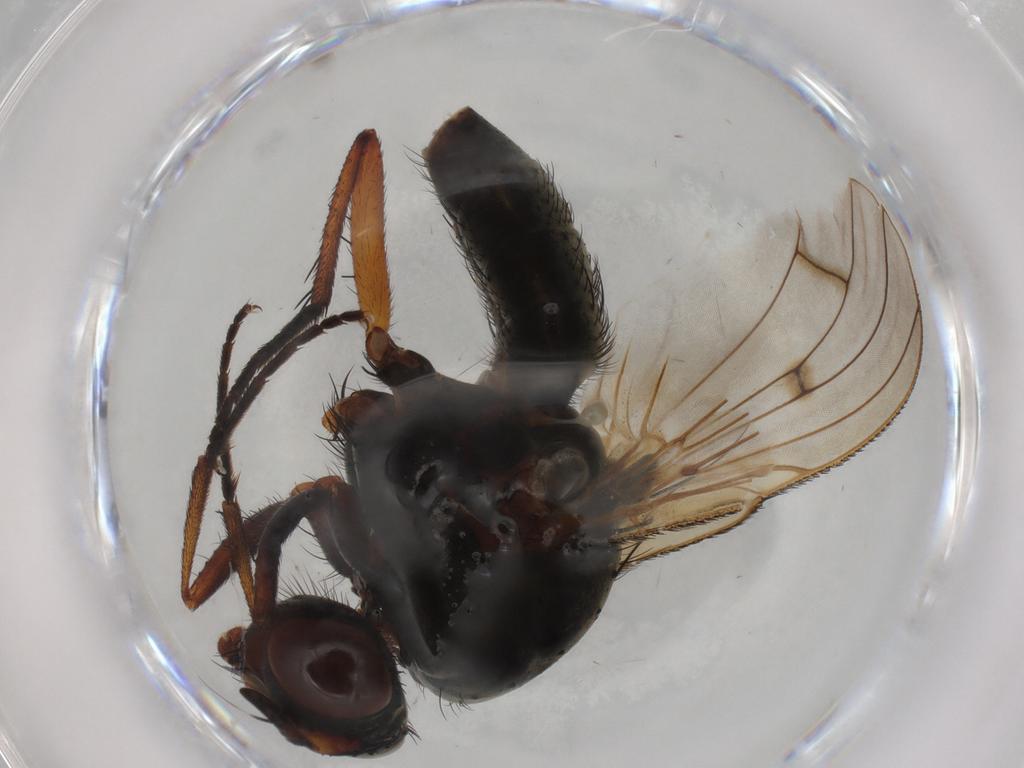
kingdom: Animalia
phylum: Arthropoda
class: Insecta
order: Diptera
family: Anthomyiidae
